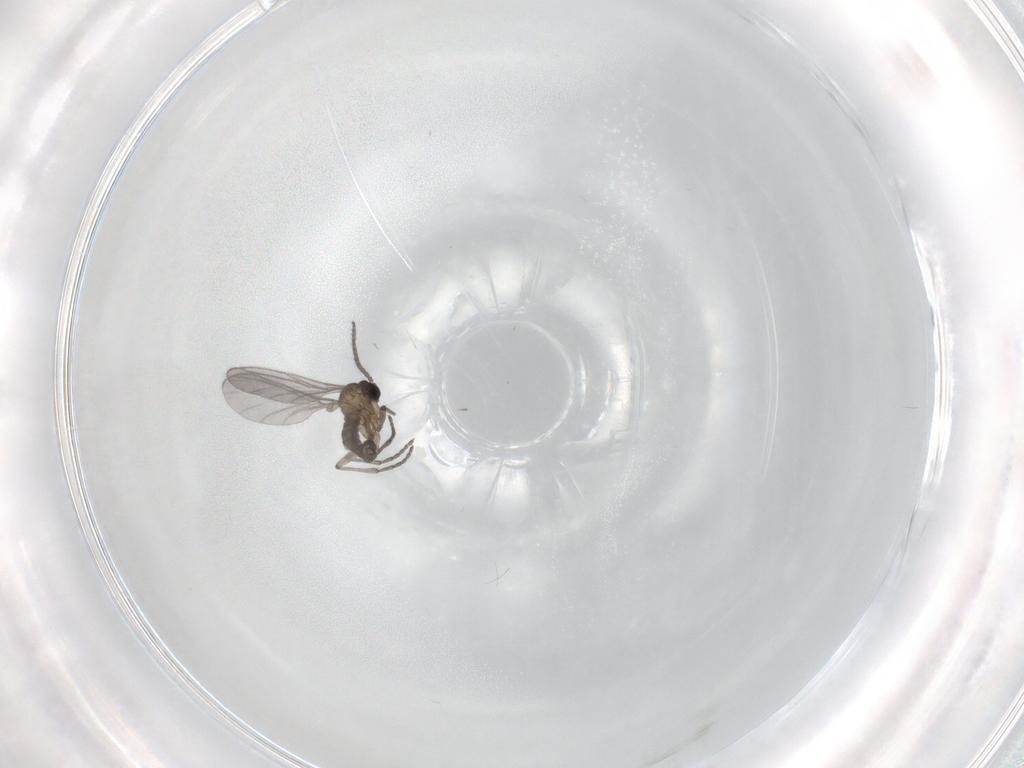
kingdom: Animalia
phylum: Arthropoda
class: Insecta
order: Diptera
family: Sciaridae
